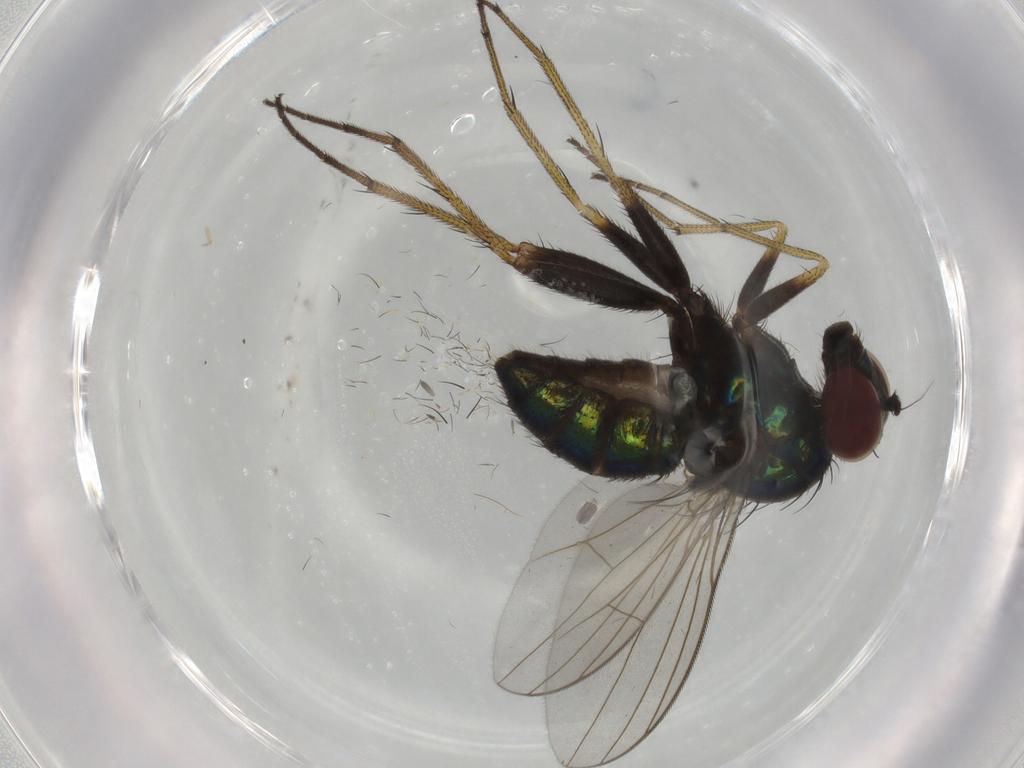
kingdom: Animalia
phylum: Arthropoda
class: Insecta
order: Diptera
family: Dolichopodidae
